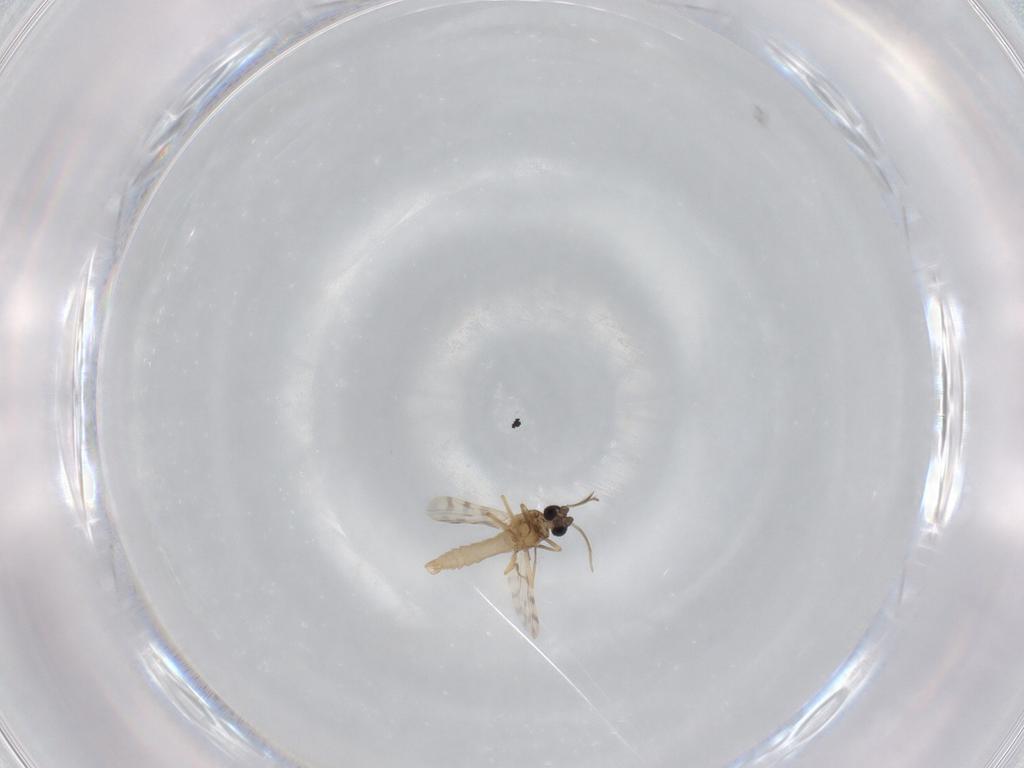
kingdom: Animalia
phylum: Arthropoda
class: Insecta
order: Diptera
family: Ceratopogonidae
